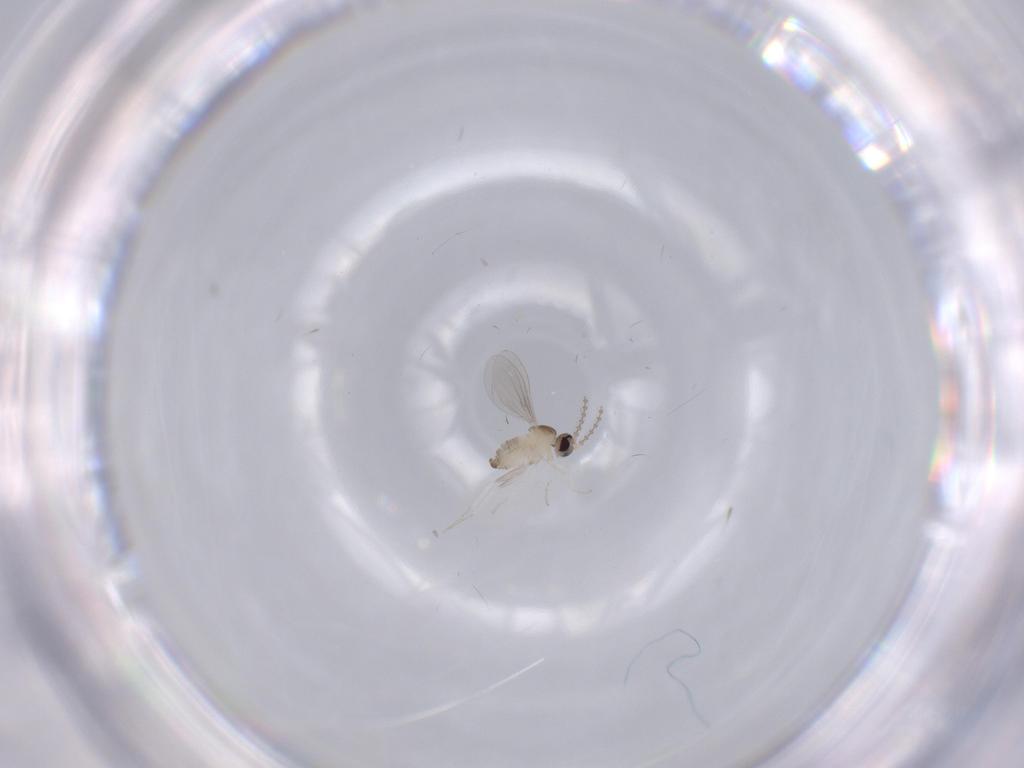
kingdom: Animalia
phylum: Arthropoda
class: Insecta
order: Diptera
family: Cecidomyiidae
